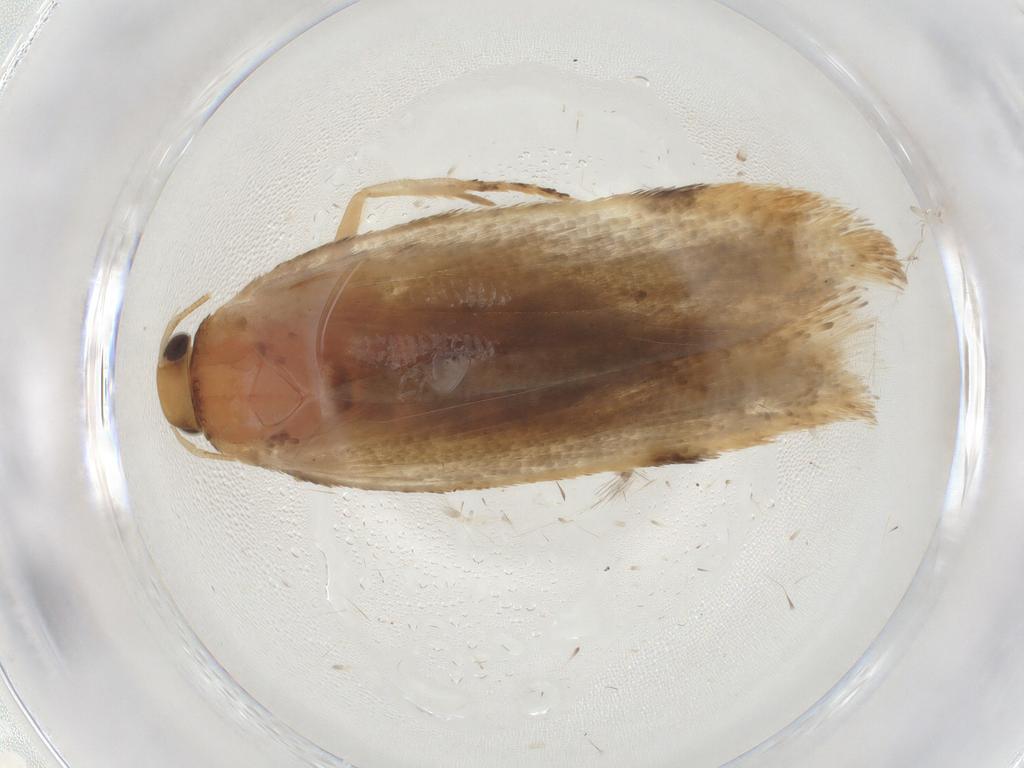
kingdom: Animalia
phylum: Arthropoda
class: Insecta
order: Lepidoptera
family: Gelechiidae
